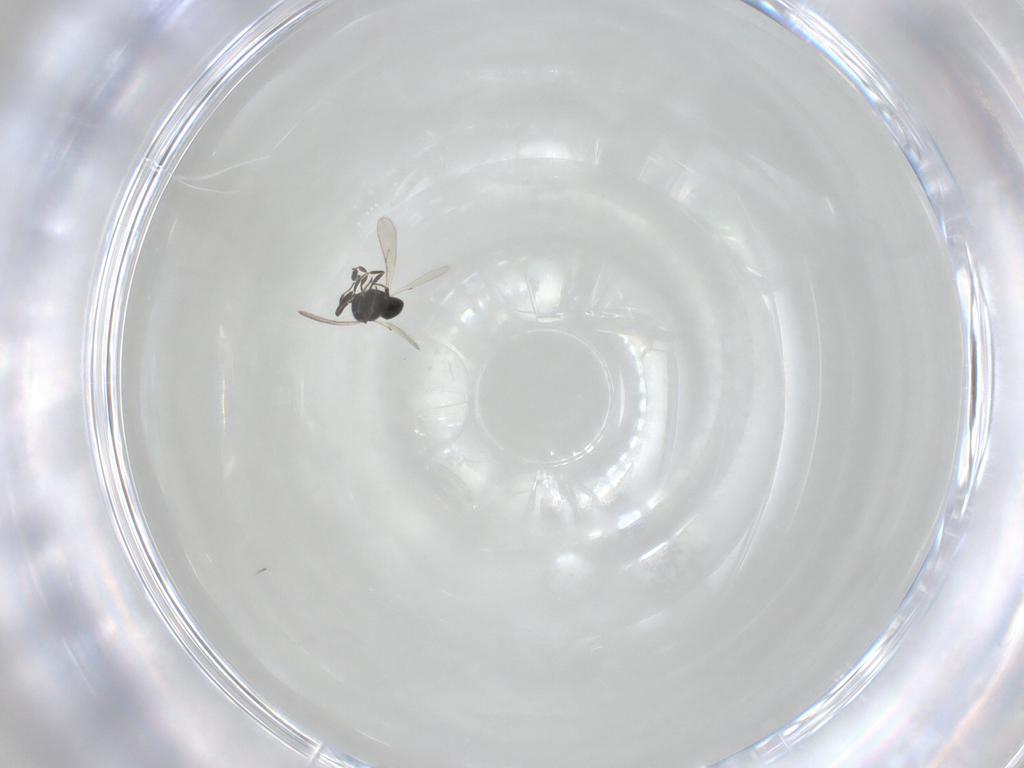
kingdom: Animalia
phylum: Arthropoda
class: Insecta
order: Hymenoptera
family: Scelionidae
